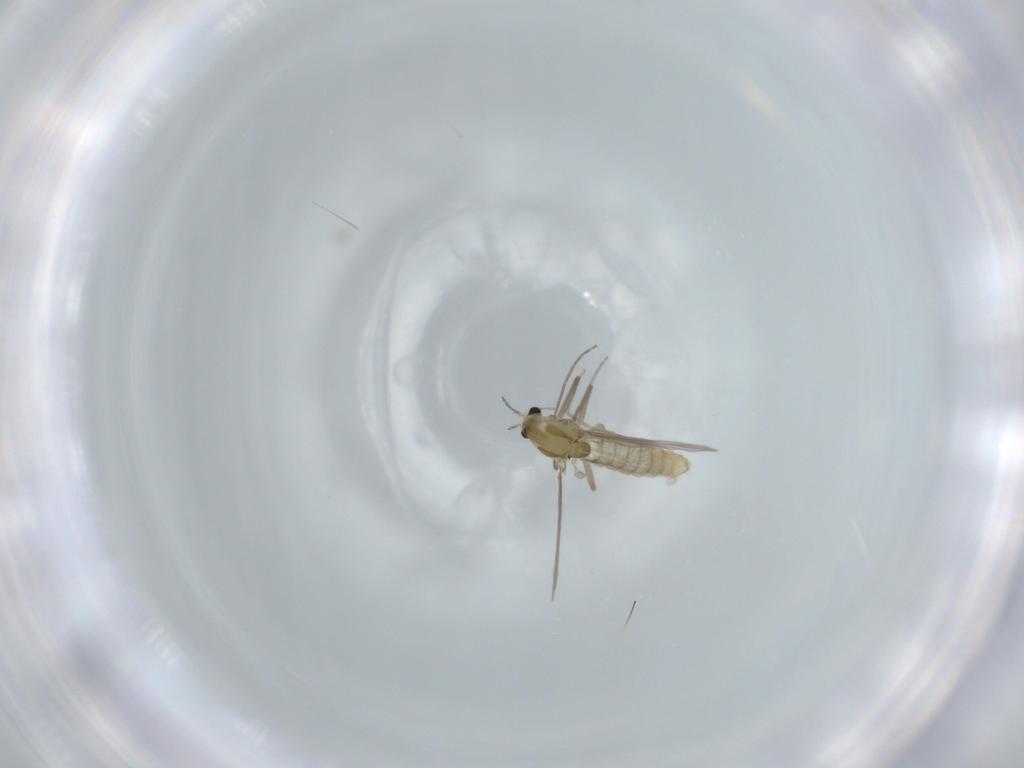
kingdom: Animalia
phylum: Arthropoda
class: Insecta
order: Diptera
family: Chironomidae
